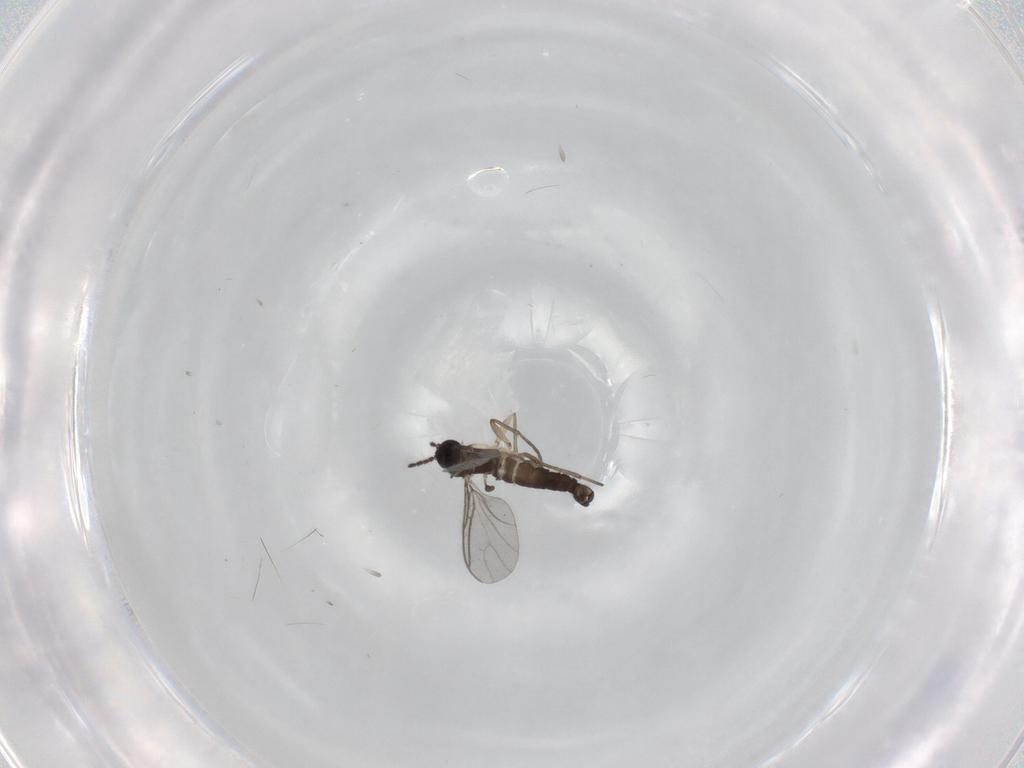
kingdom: Animalia
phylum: Arthropoda
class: Insecta
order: Diptera
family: Sciaridae
